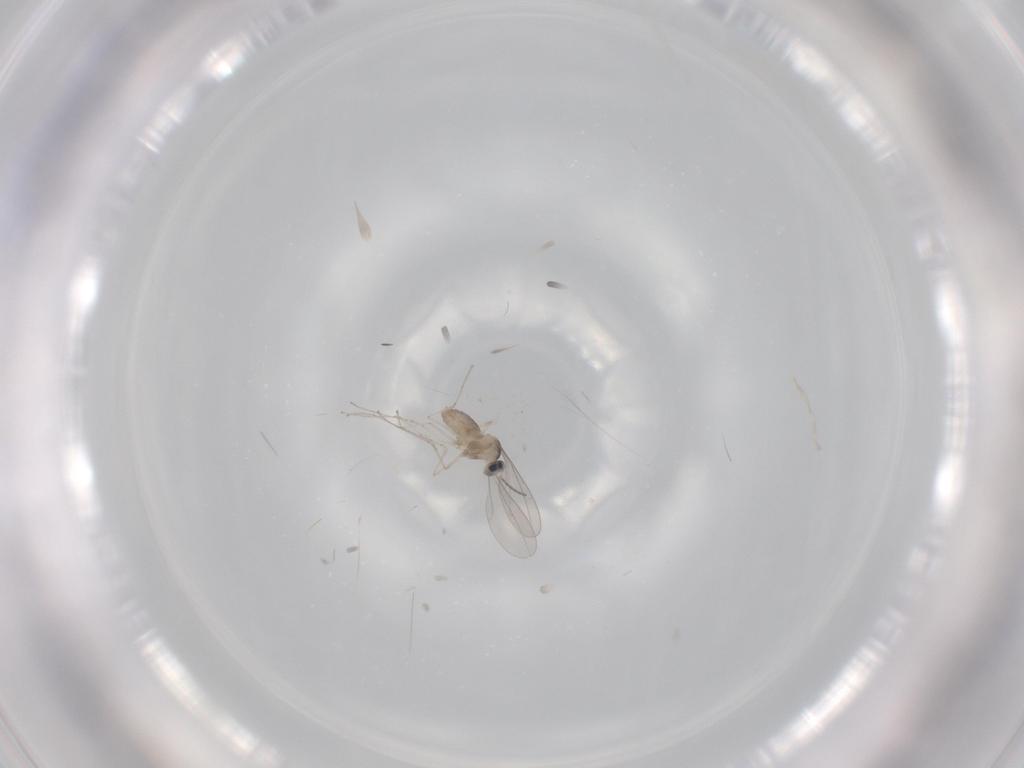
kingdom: Animalia
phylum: Arthropoda
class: Insecta
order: Diptera
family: Cecidomyiidae
